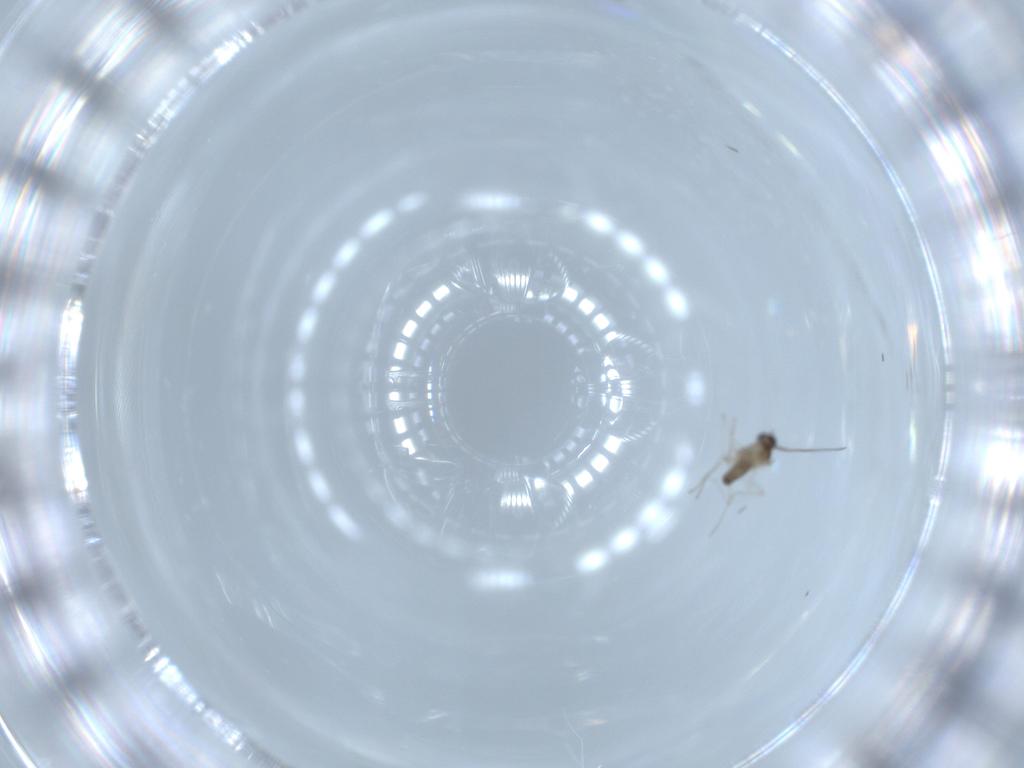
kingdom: Animalia
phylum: Arthropoda
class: Insecta
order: Diptera
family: Cecidomyiidae
